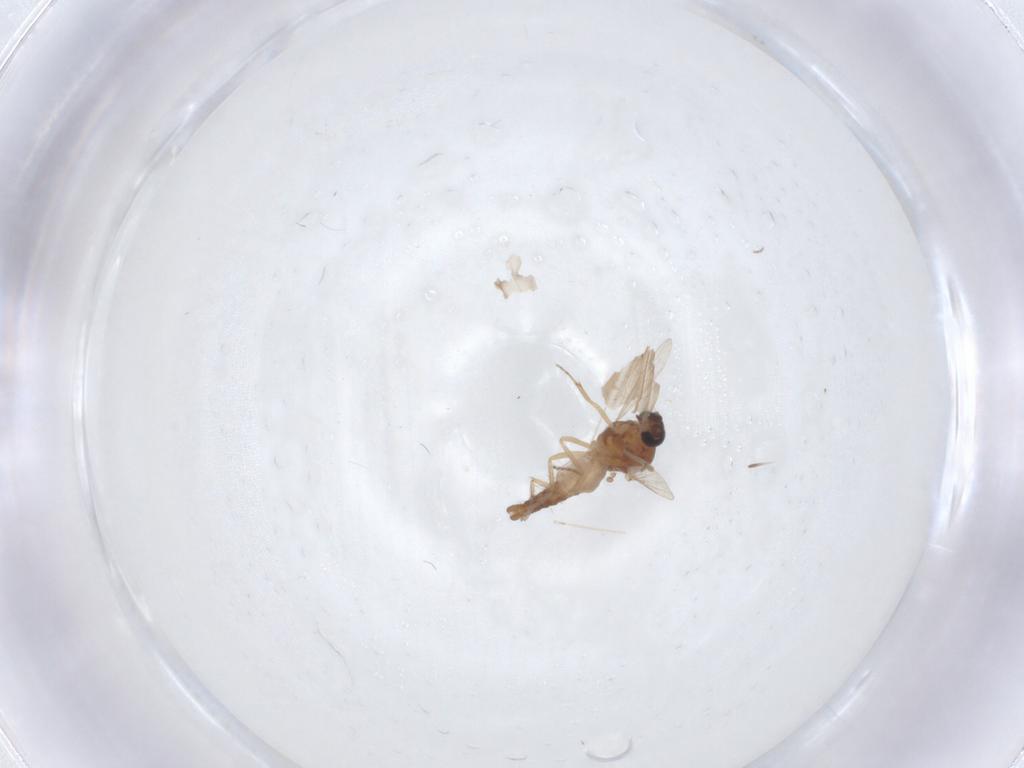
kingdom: Animalia
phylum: Arthropoda
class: Insecta
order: Diptera
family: Ceratopogonidae
